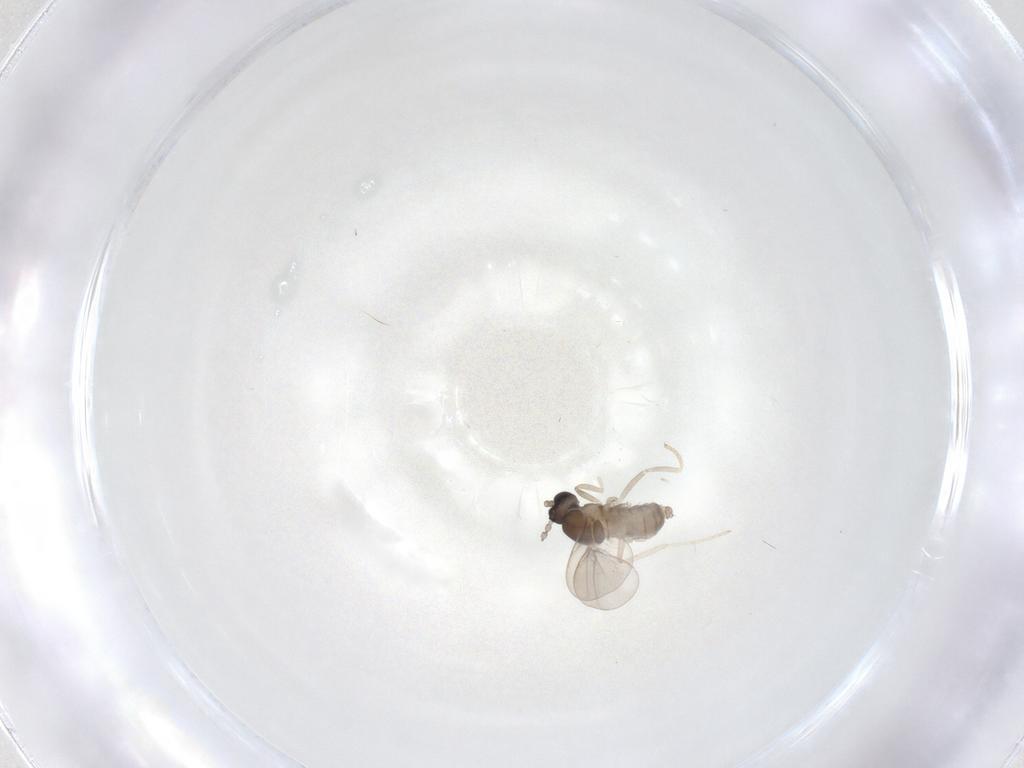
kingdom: Animalia
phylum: Arthropoda
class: Insecta
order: Diptera
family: Cecidomyiidae
